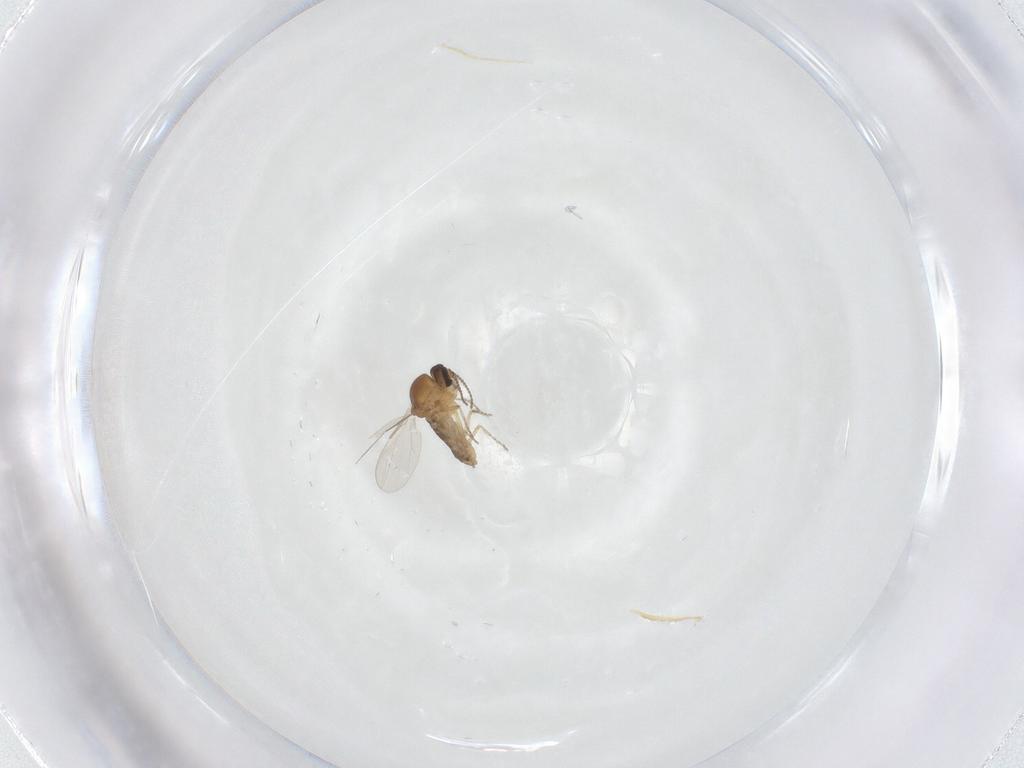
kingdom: Animalia
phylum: Arthropoda
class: Insecta
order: Diptera
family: Ceratopogonidae
